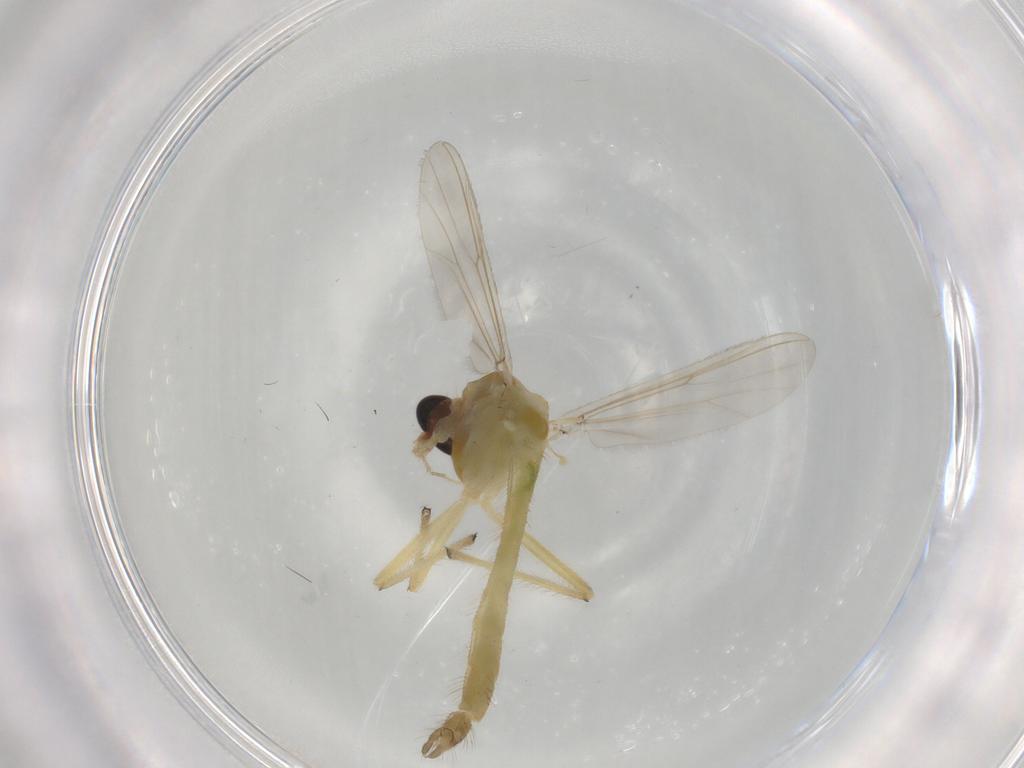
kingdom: Animalia
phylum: Arthropoda
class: Insecta
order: Diptera
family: Chironomidae
